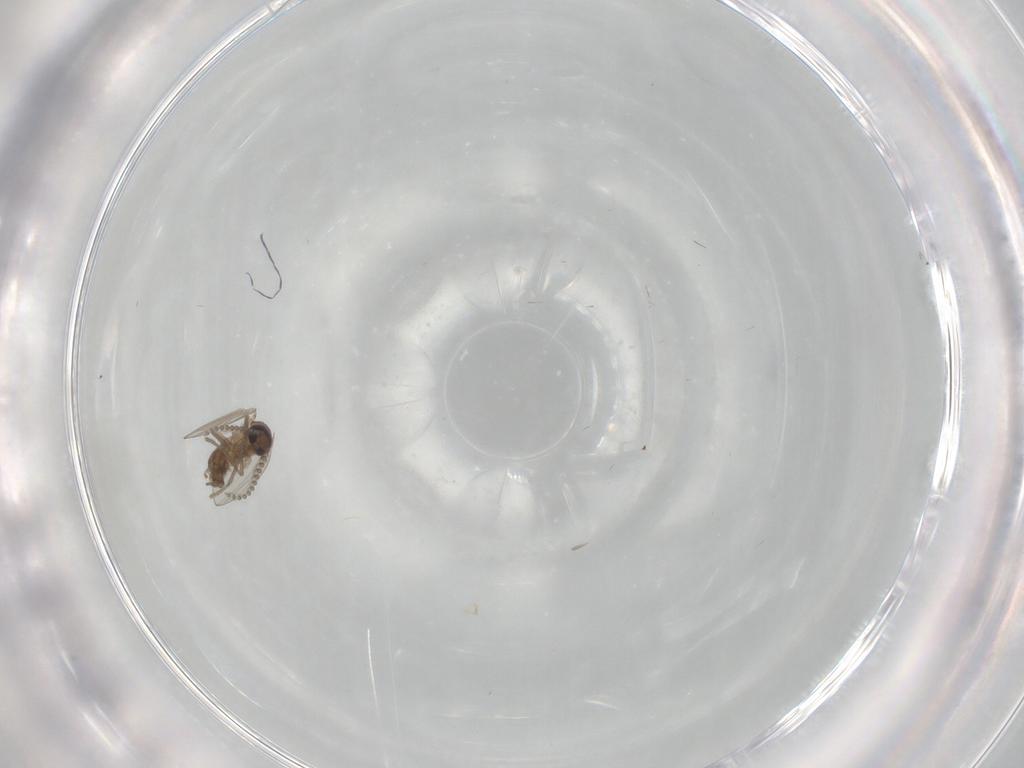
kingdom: Animalia
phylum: Arthropoda
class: Insecta
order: Diptera
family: Psychodidae
